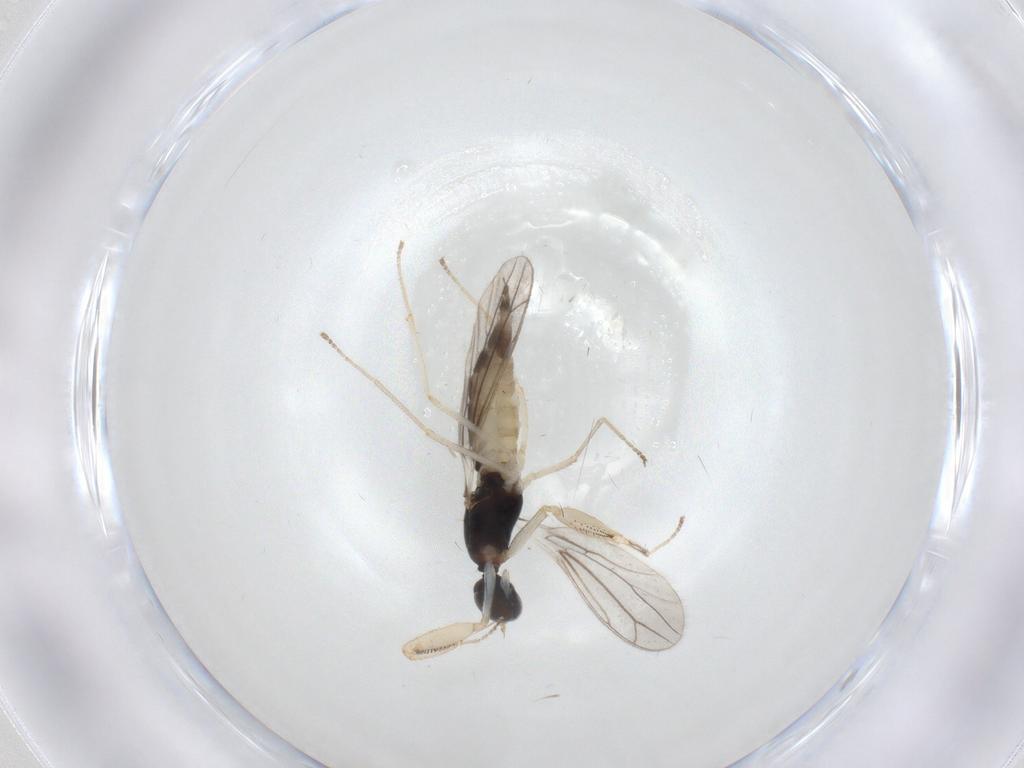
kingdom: Animalia
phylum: Arthropoda
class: Insecta
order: Diptera
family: Empididae
